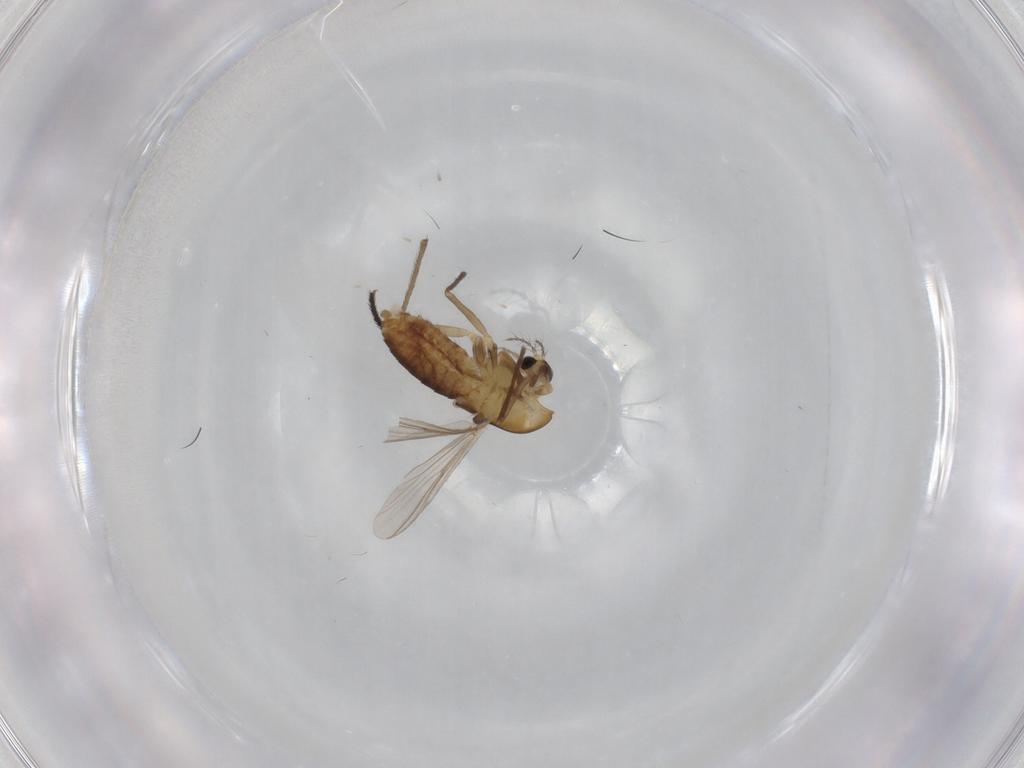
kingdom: Animalia
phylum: Arthropoda
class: Insecta
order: Diptera
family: Chironomidae
